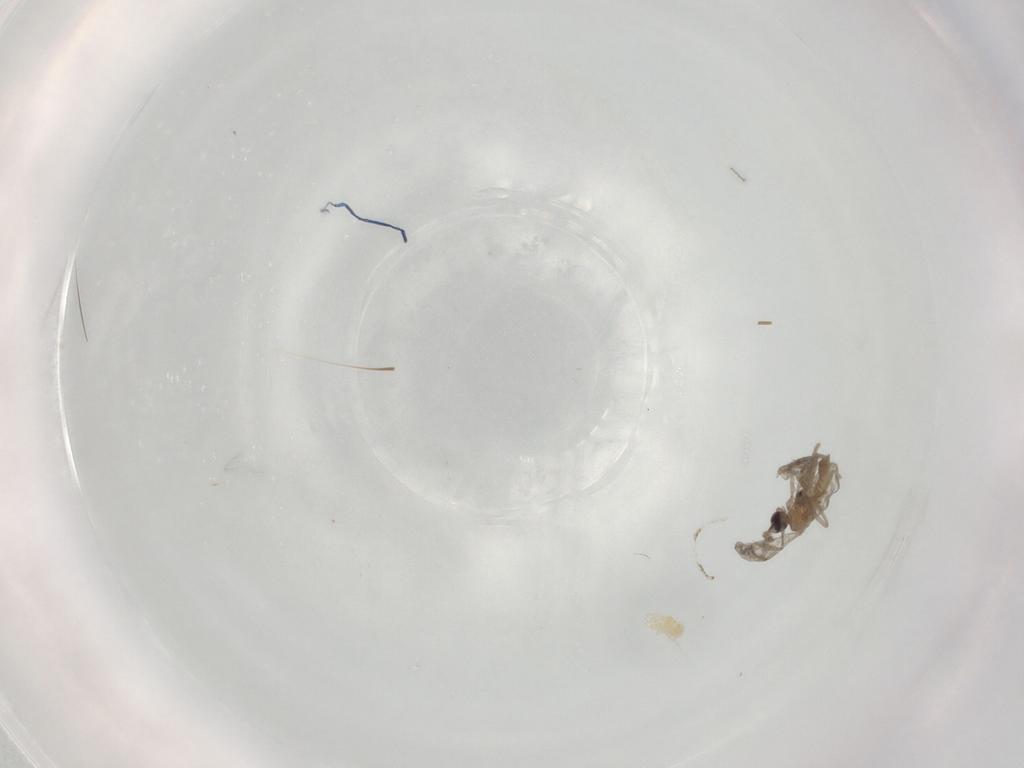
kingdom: Animalia
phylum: Arthropoda
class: Insecta
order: Diptera
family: Cecidomyiidae
